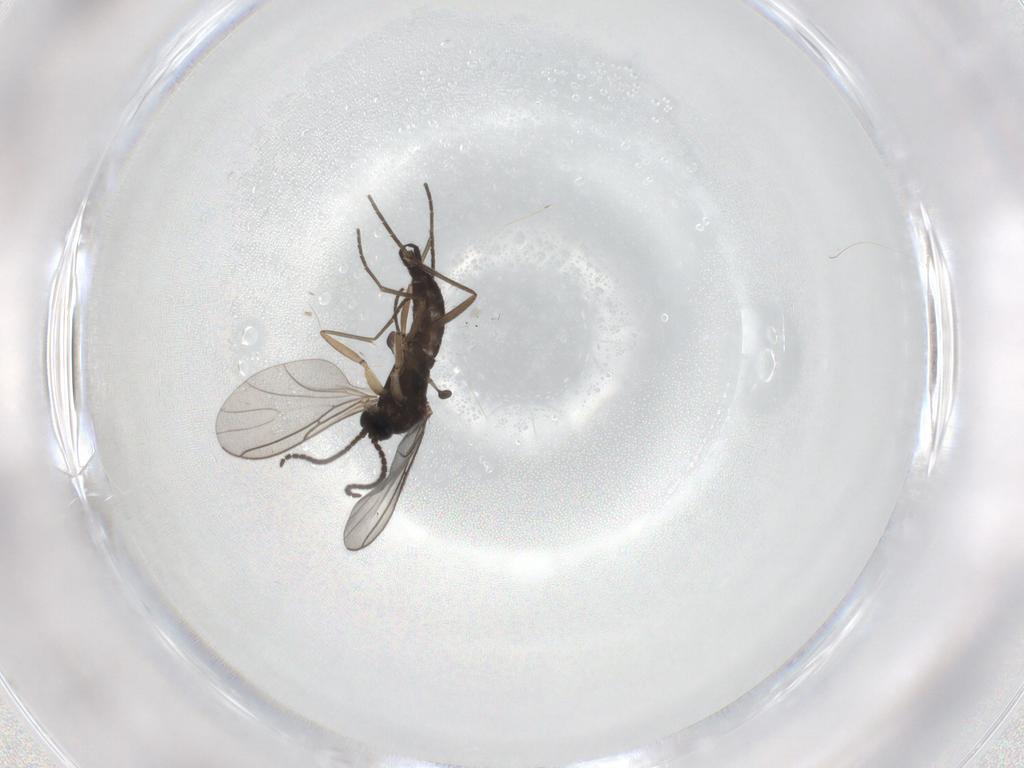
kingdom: Animalia
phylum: Arthropoda
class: Insecta
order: Diptera
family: Sciaridae
